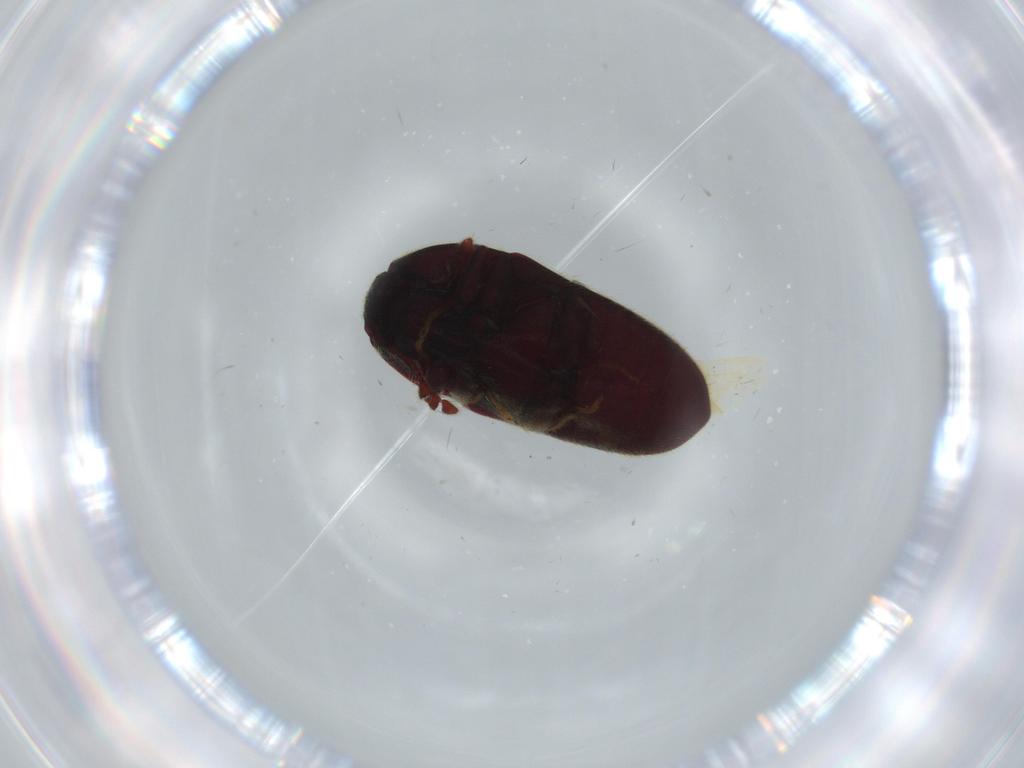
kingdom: Animalia
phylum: Arthropoda
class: Insecta
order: Coleoptera
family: Throscidae
